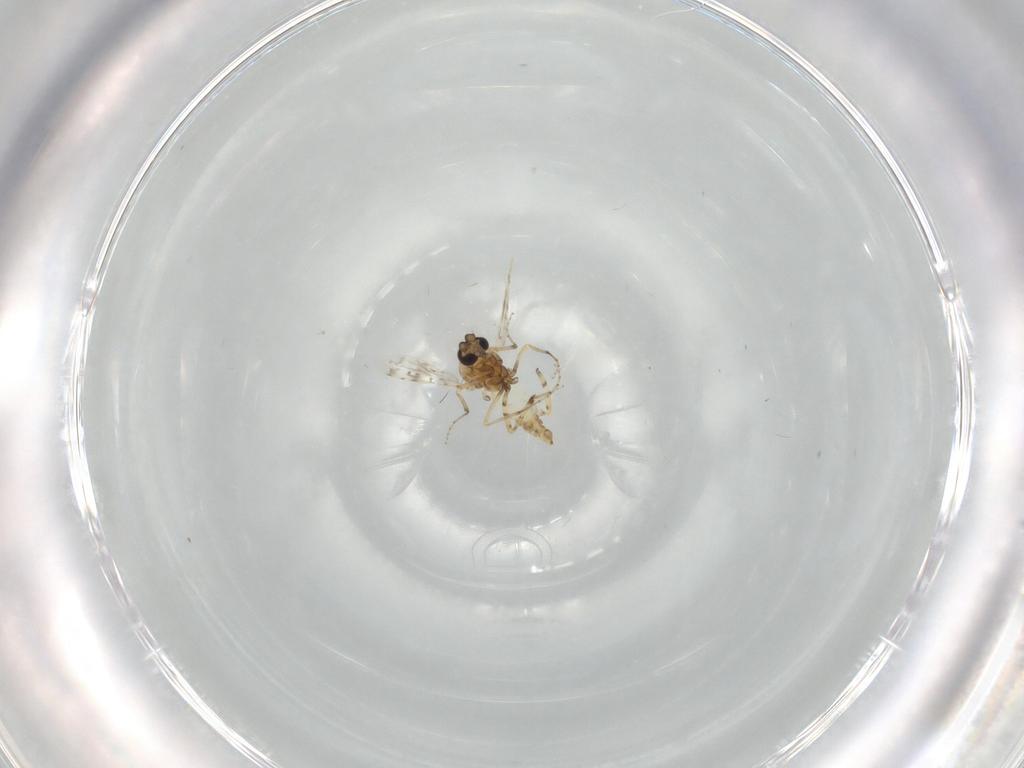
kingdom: Animalia
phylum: Arthropoda
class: Insecta
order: Diptera
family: Ceratopogonidae
